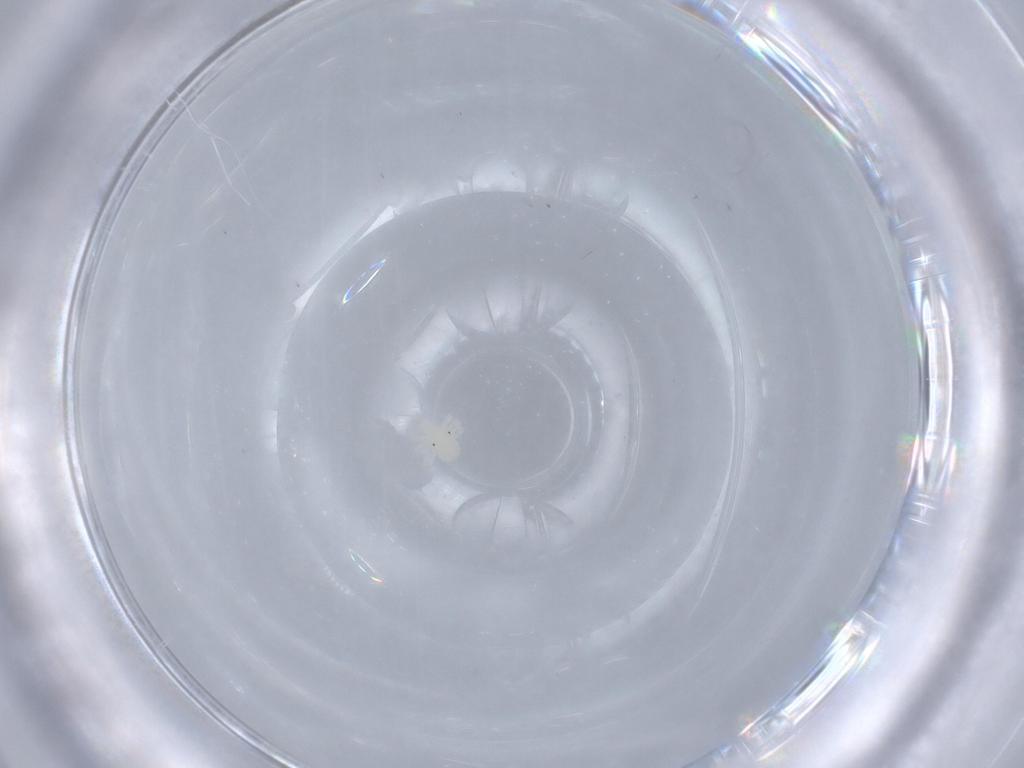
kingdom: Animalia
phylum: Arthropoda
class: Arachnida
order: Trombidiformes
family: Anystidae
